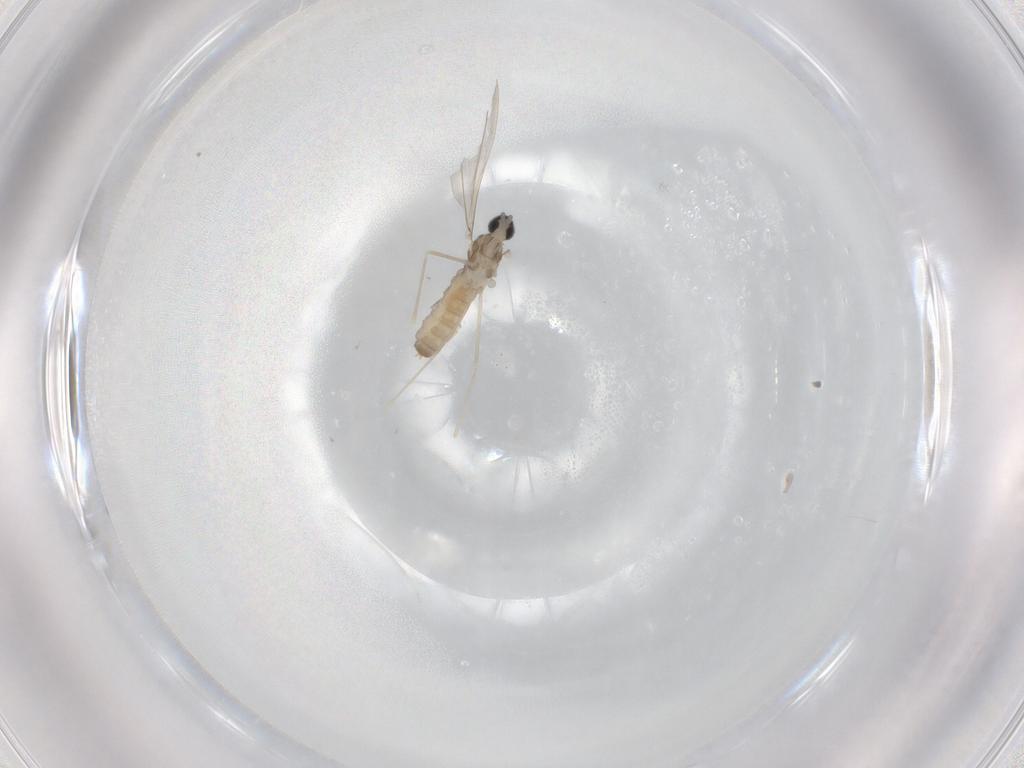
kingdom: Animalia
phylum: Arthropoda
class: Insecta
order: Diptera
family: Cecidomyiidae
